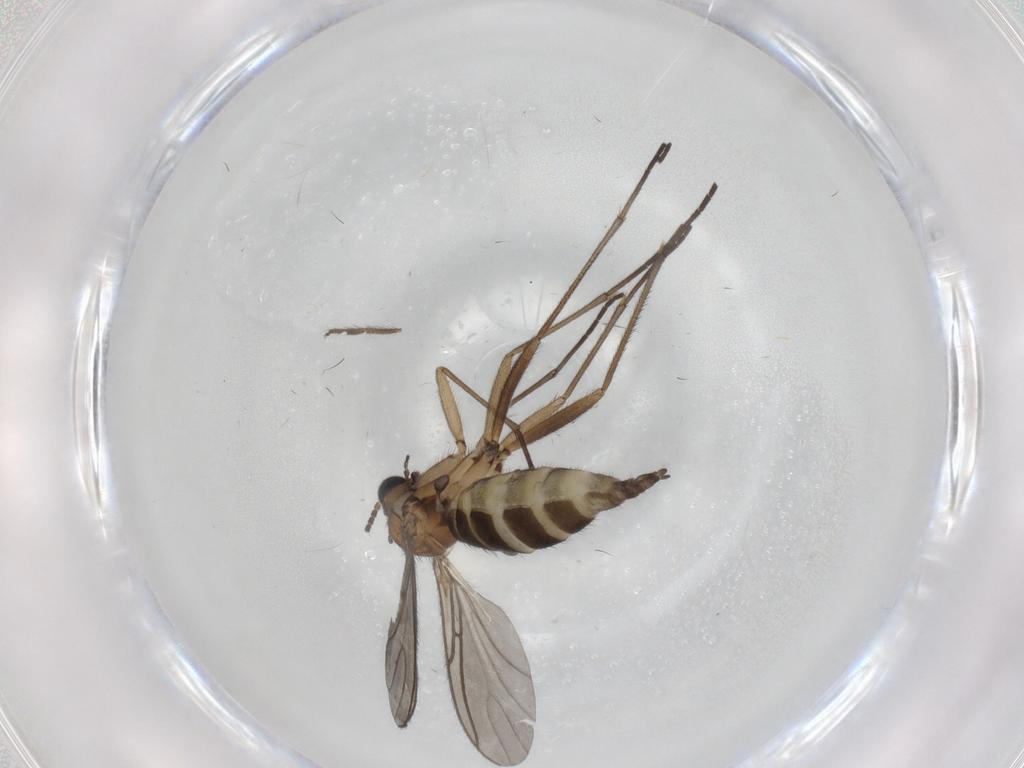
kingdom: Animalia
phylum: Arthropoda
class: Insecta
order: Diptera
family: Sciaridae
